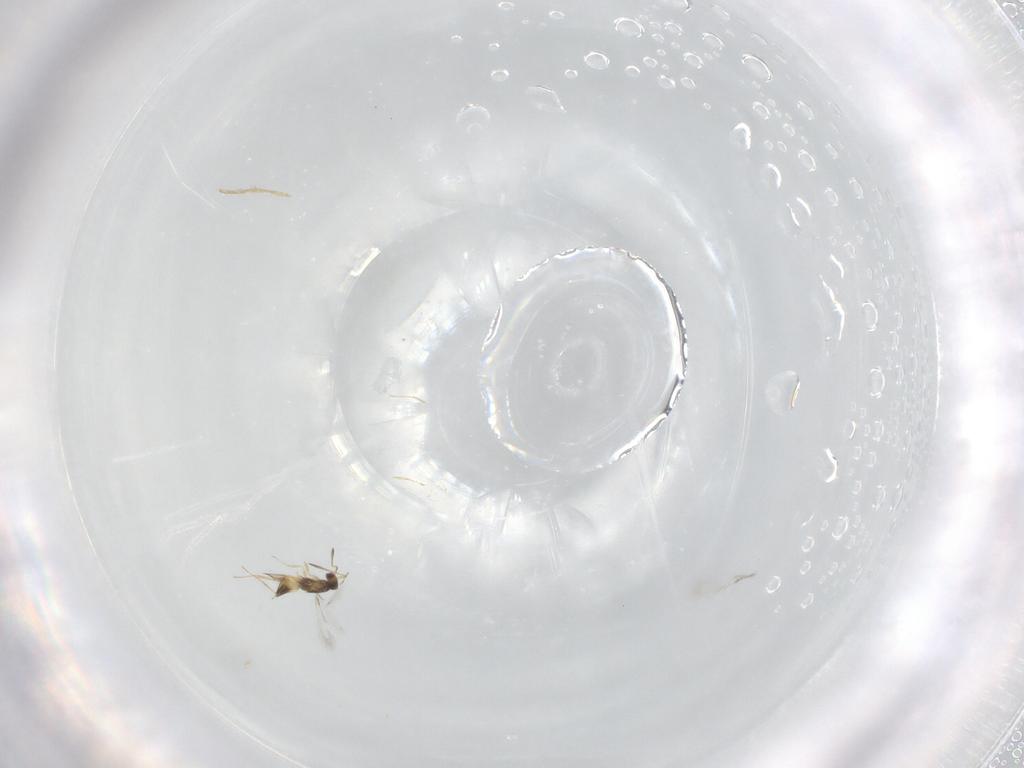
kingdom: Animalia
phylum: Arthropoda
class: Insecta
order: Hymenoptera
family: Mymaridae
